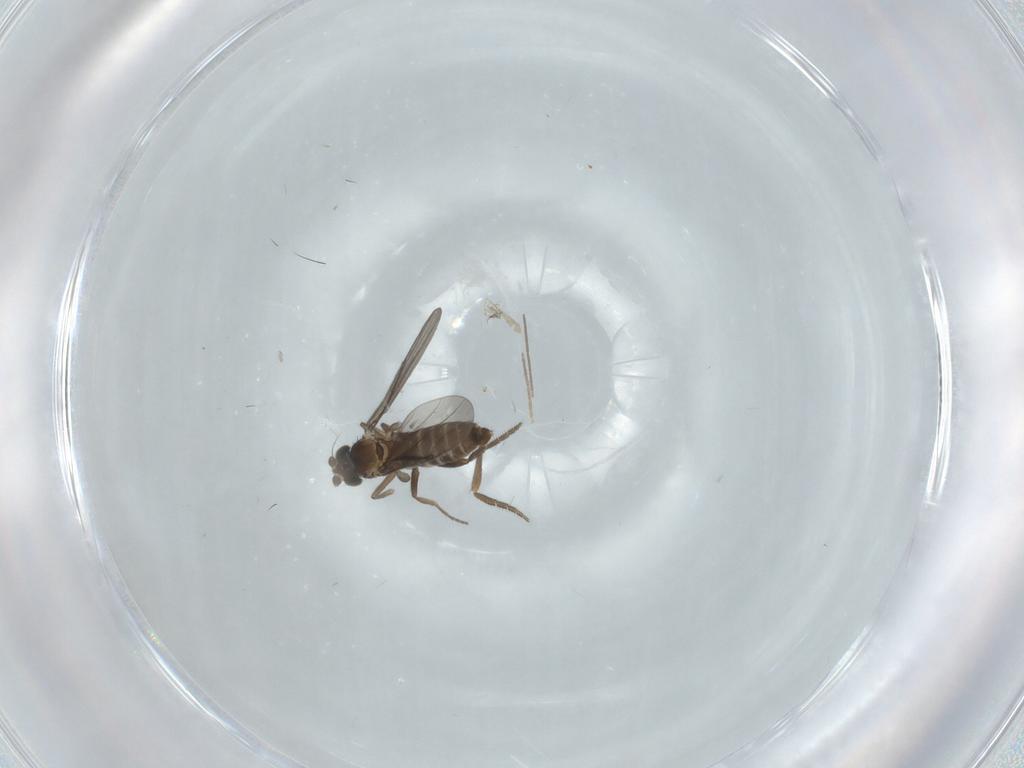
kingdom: Animalia
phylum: Arthropoda
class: Insecta
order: Diptera
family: Phoridae
